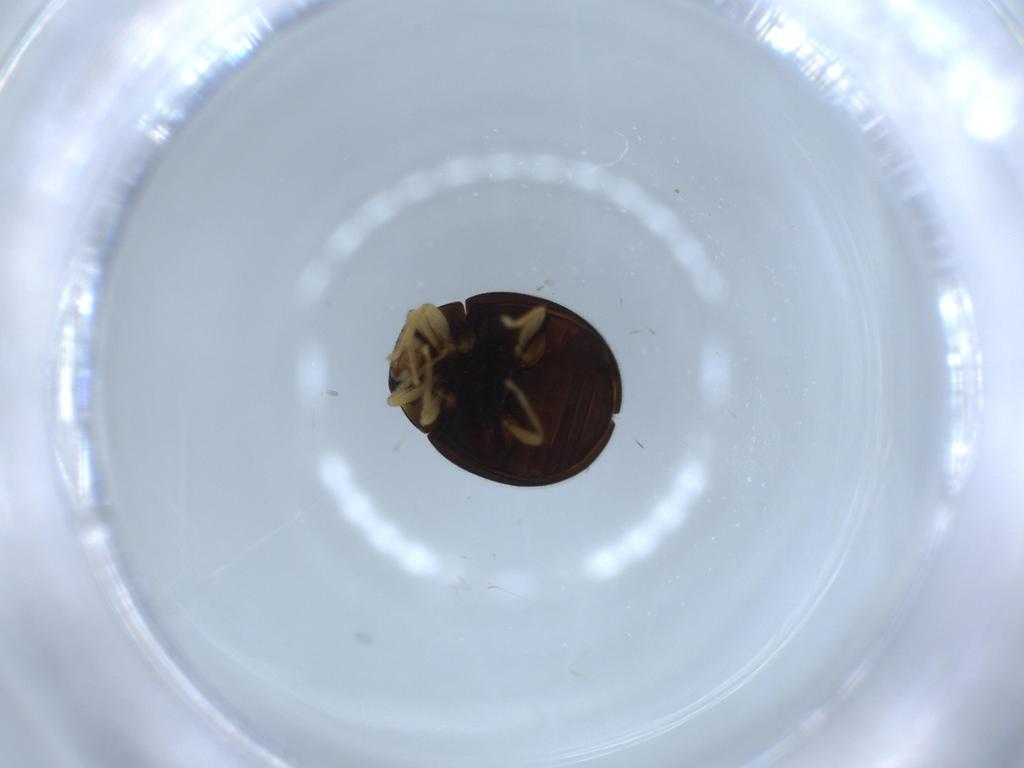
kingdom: Animalia
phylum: Arthropoda
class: Insecta
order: Coleoptera
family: Coccinellidae
